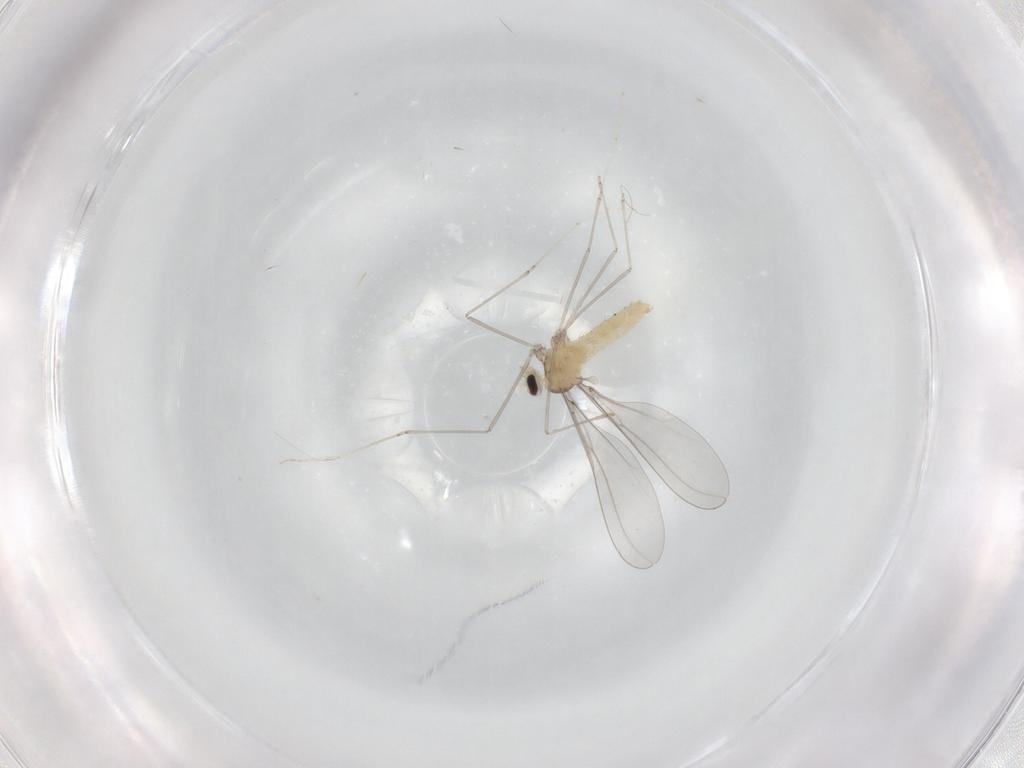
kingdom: Animalia
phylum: Arthropoda
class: Insecta
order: Diptera
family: Cecidomyiidae
